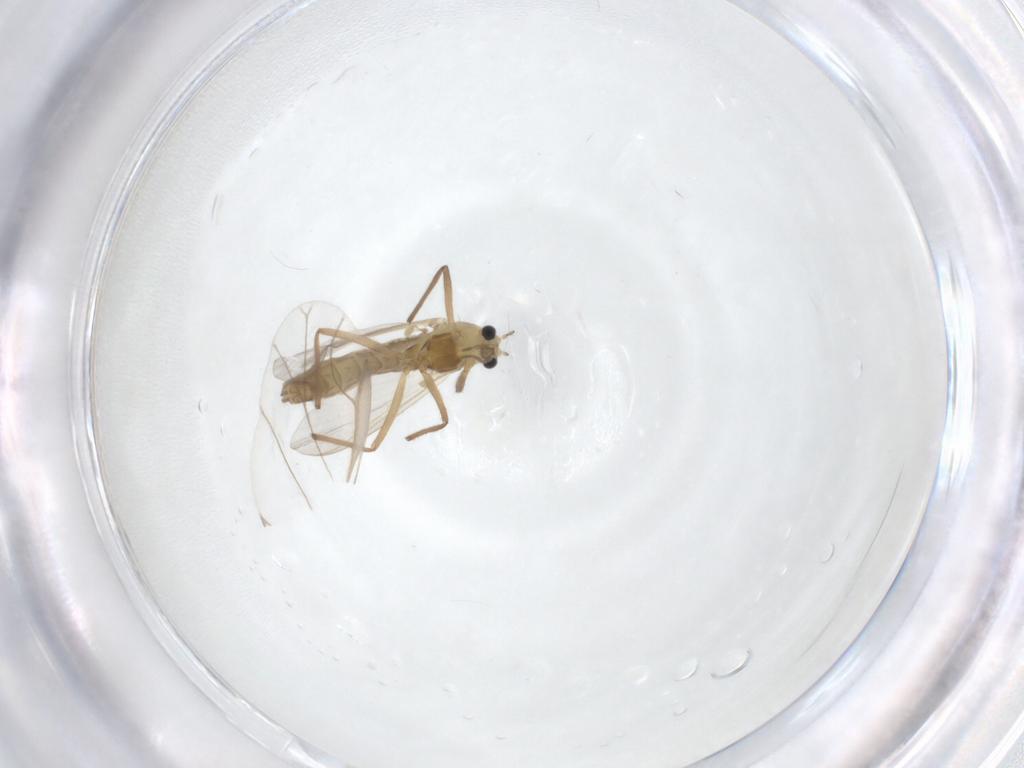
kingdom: Animalia
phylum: Arthropoda
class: Insecta
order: Diptera
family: Chironomidae
